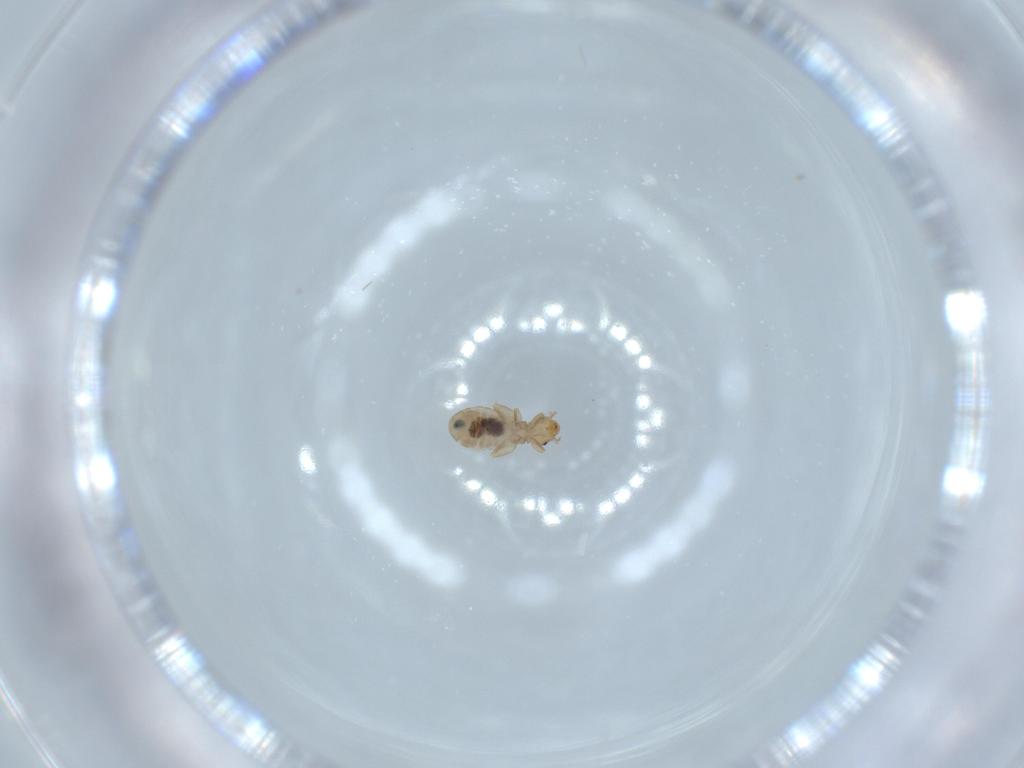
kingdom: Animalia
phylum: Arthropoda
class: Insecta
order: Psocodea
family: Liposcelididae
